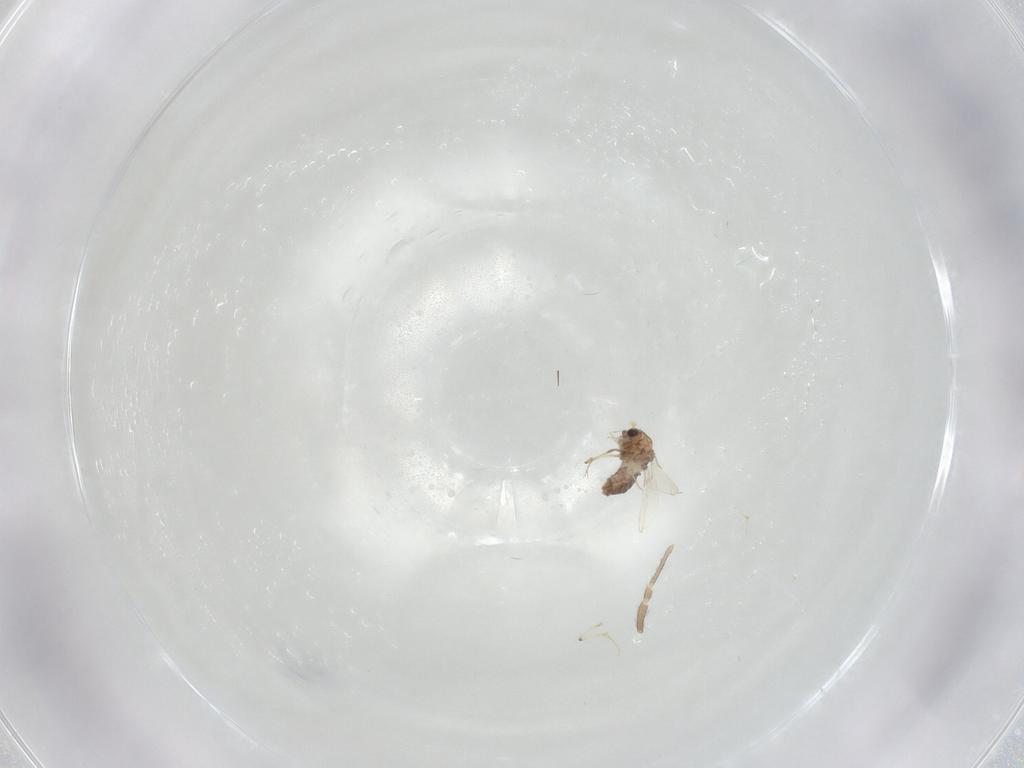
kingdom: Animalia
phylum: Arthropoda
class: Insecta
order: Diptera
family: Chironomidae
